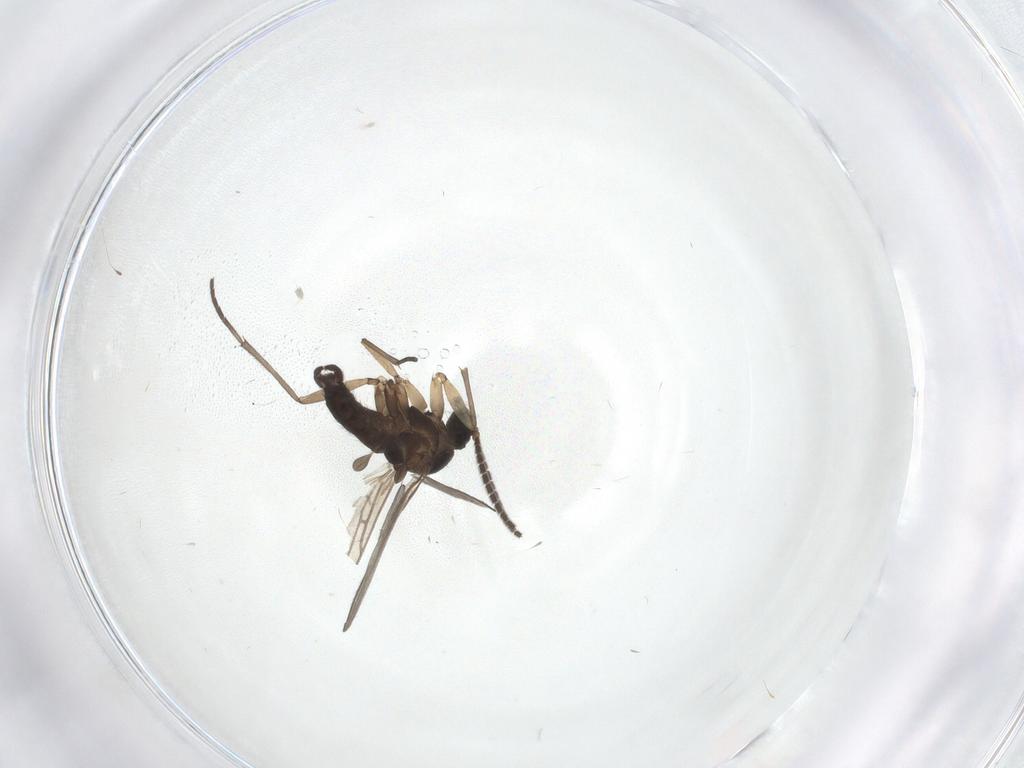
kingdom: Animalia
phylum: Arthropoda
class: Insecta
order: Diptera
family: Sciaridae
